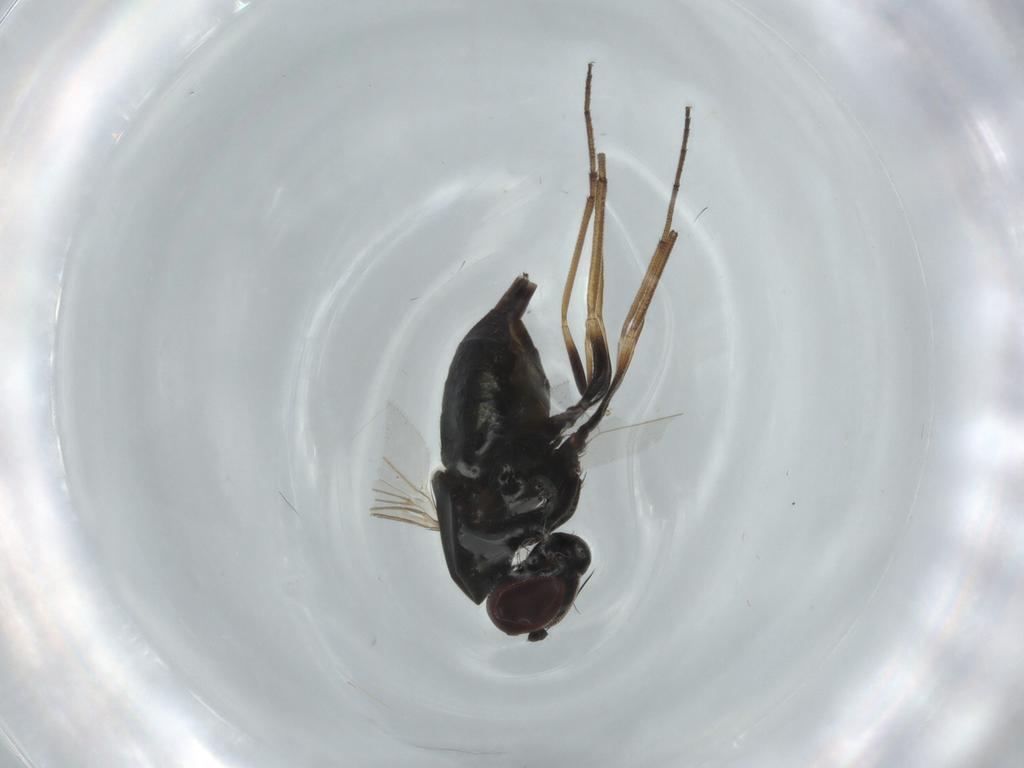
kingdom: Animalia
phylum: Arthropoda
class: Insecta
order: Diptera
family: Dolichopodidae
